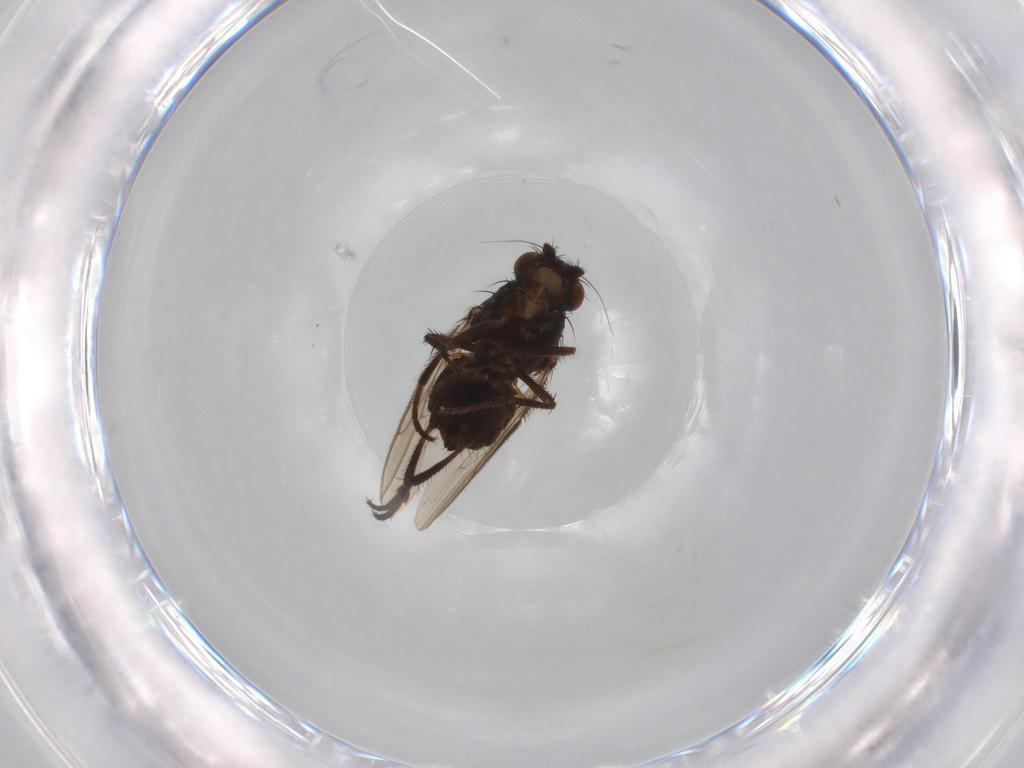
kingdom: Animalia
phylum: Arthropoda
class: Insecta
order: Diptera
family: Sphaeroceridae
